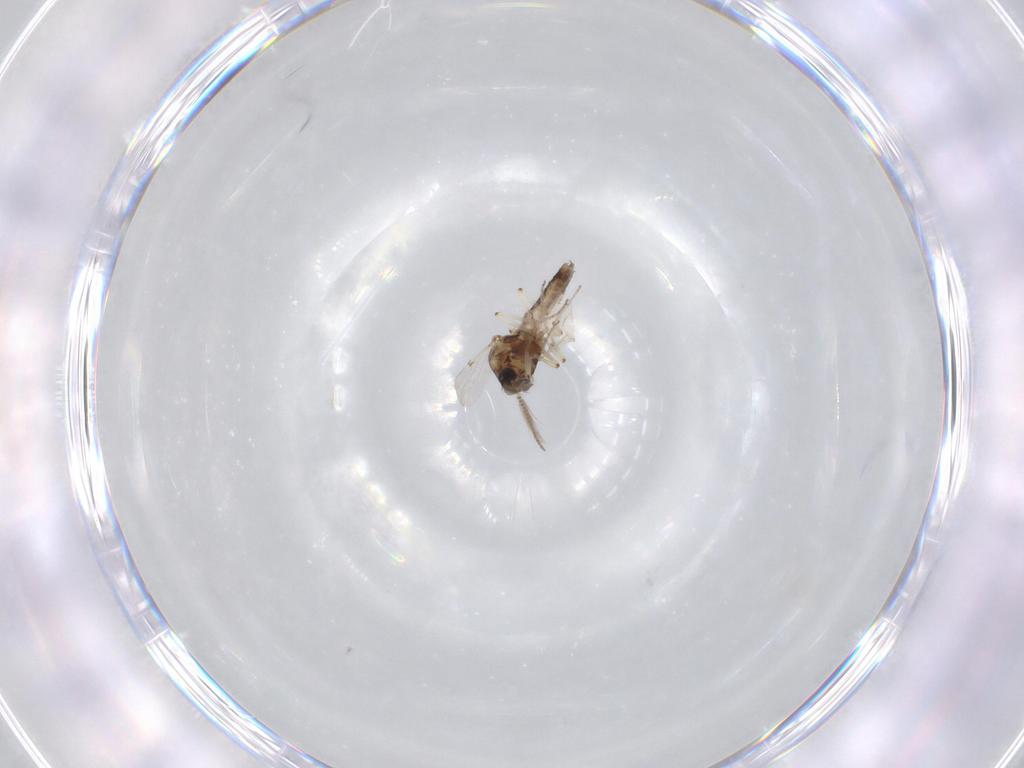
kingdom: Animalia
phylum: Arthropoda
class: Insecta
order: Diptera
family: Ceratopogonidae
